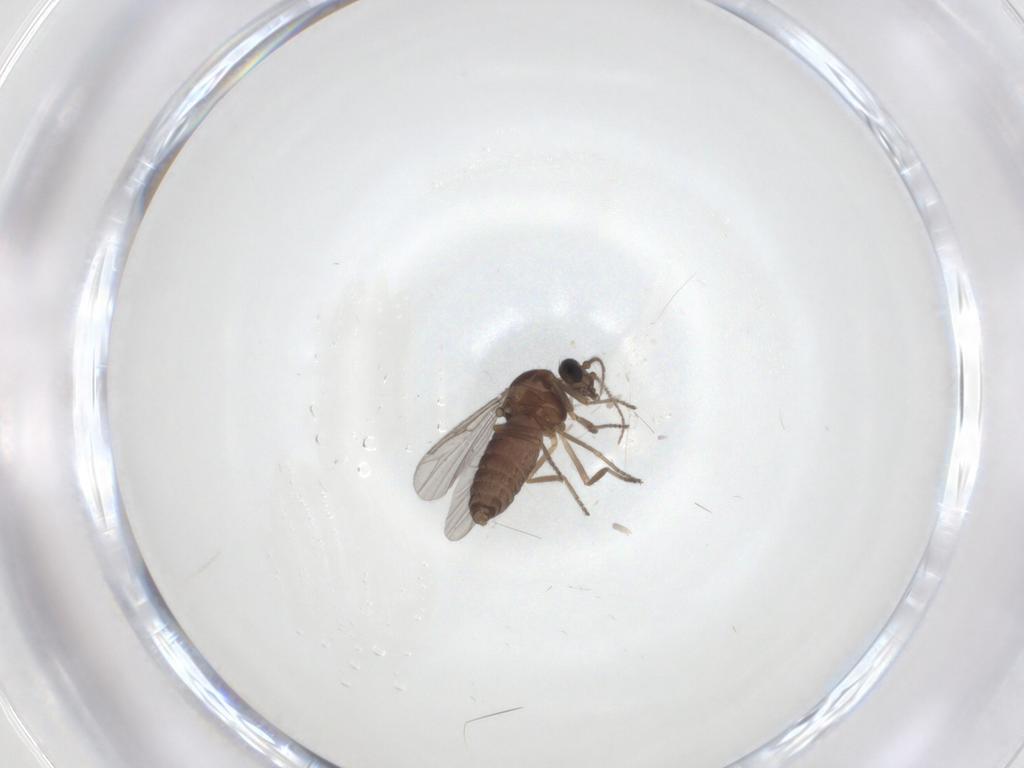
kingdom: Animalia
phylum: Arthropoda
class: Insecta
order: Diptera
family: Ceratopogonidae
